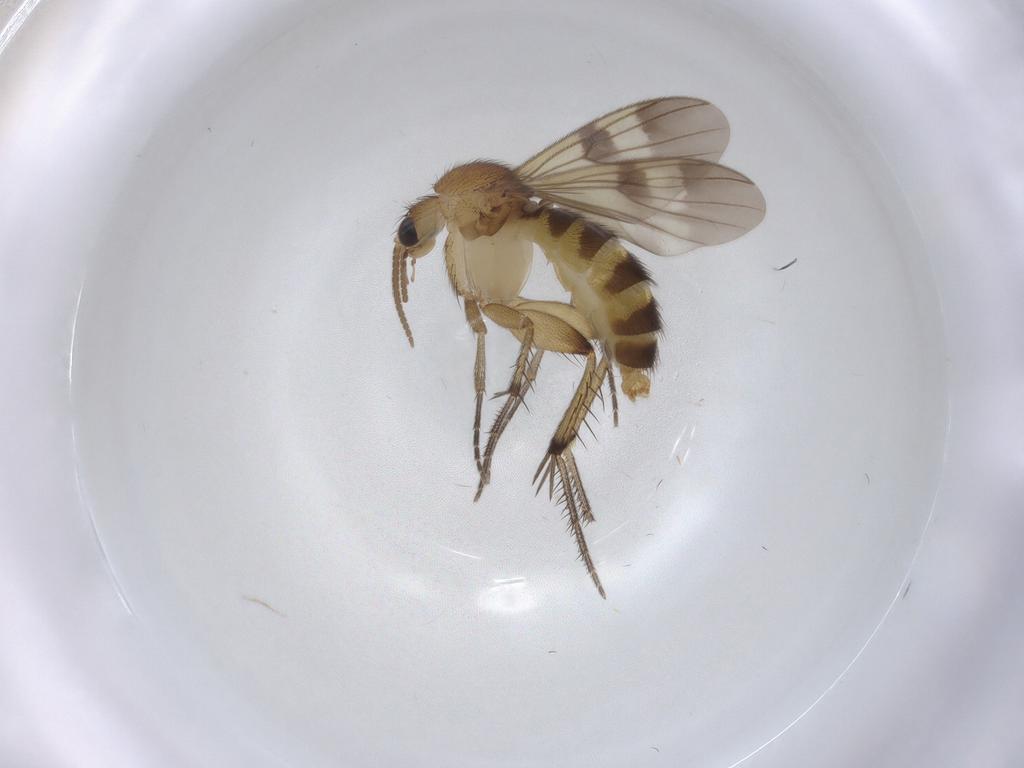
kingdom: Animalia
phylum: Arthropoda
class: Insecta
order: Diptera
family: Mycetophilidae
